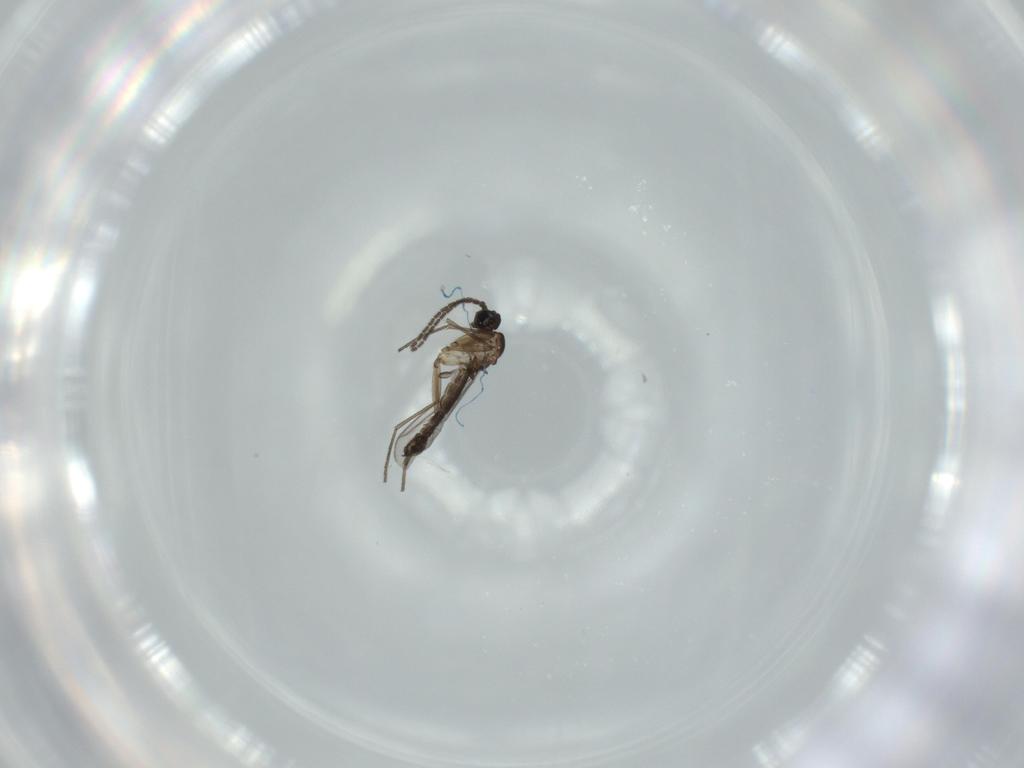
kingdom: Animalia
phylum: Arthropoda
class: Insecta
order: Diptera
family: Sciaridae
